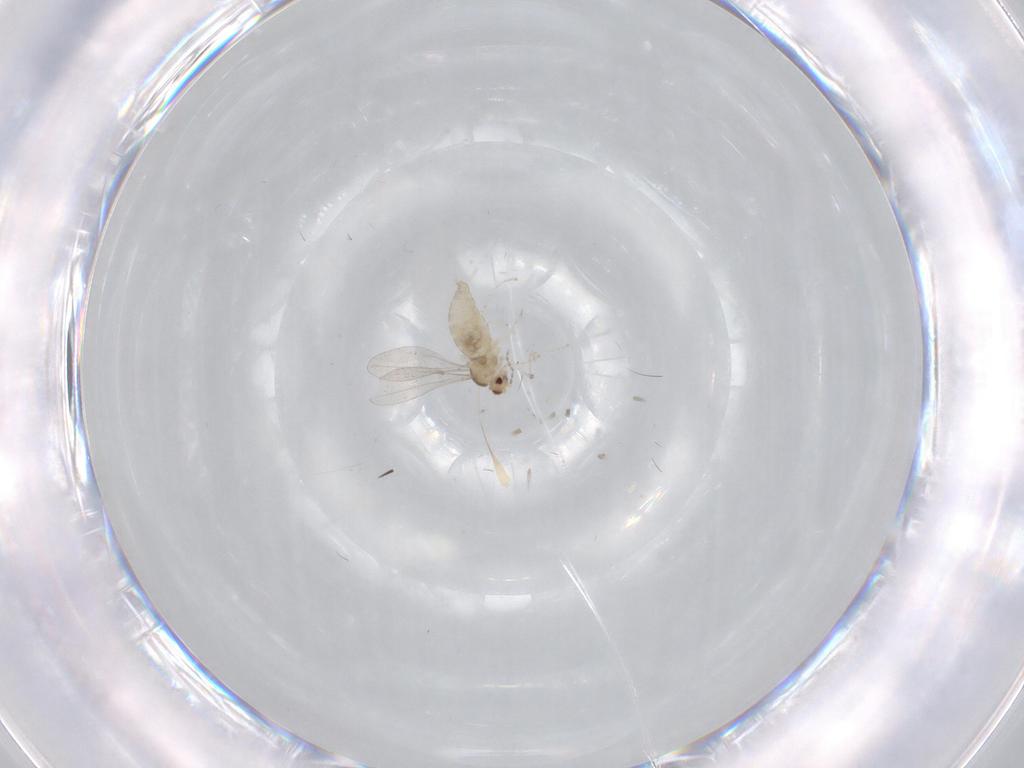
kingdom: Animalia
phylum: Arthropoda
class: Insecta
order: Diptera
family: Cecidomyiidae
